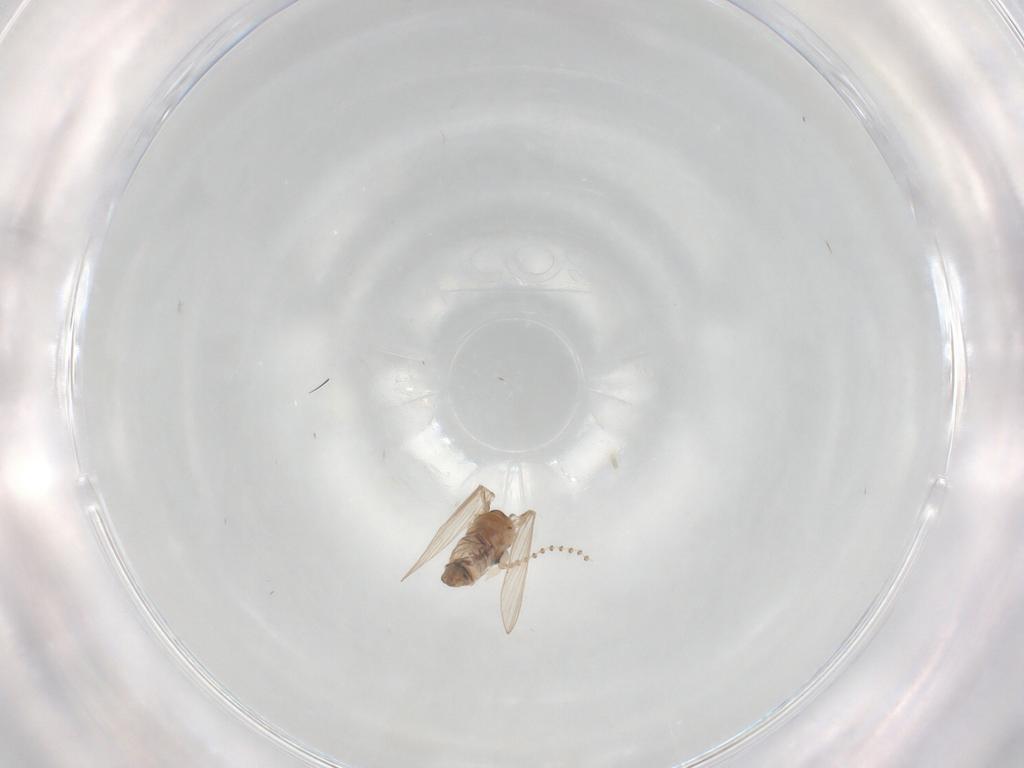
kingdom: Animalia
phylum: Arthropoda
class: Insecta
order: Diptera
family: Psychodidae
